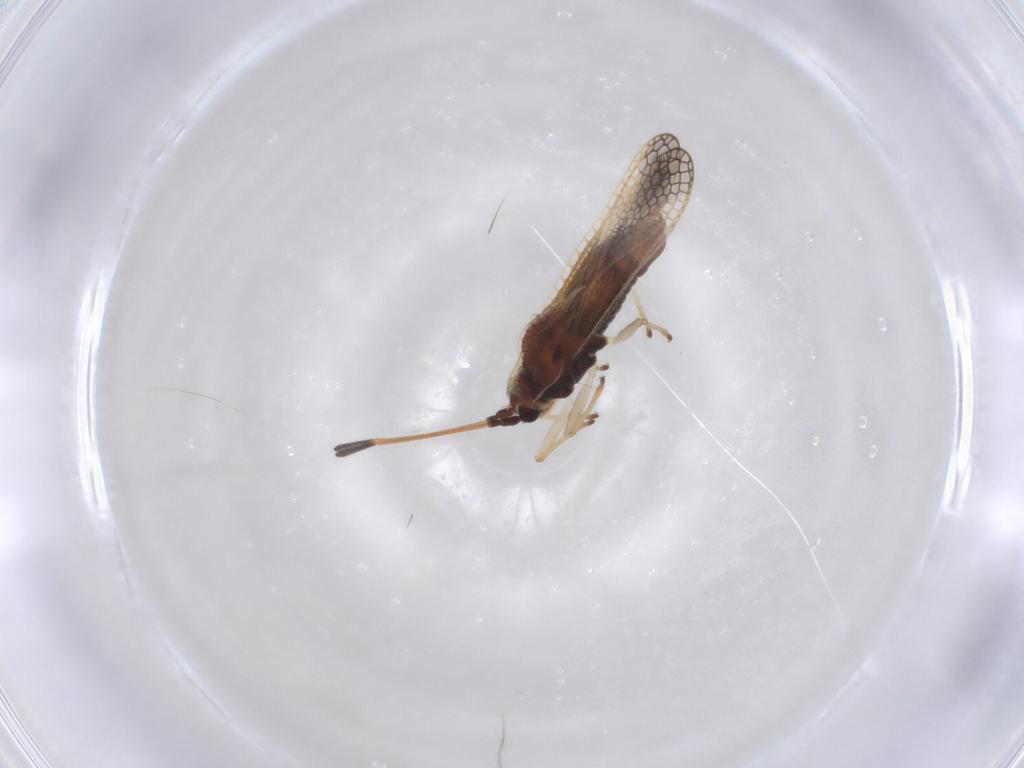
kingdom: Animalia
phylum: Arthropoda
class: Insecta
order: Hemiptera
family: Tingidae
